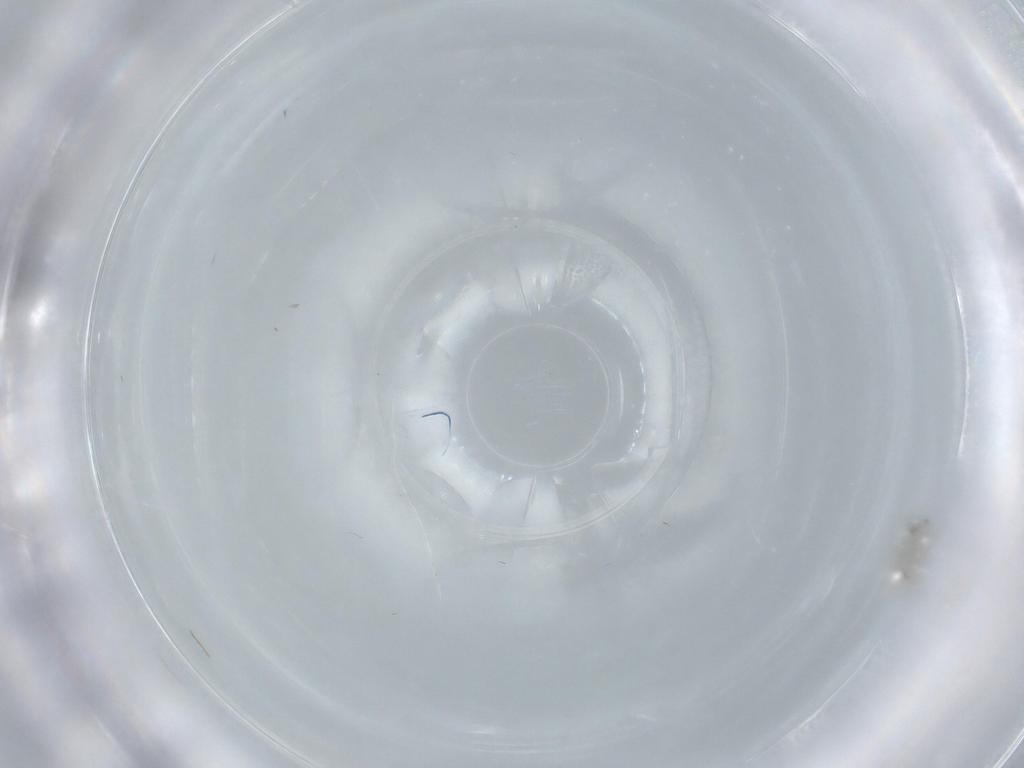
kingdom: Animalia
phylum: Arthropoda
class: Insecta
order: Diptera
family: Cecidomyiidae
